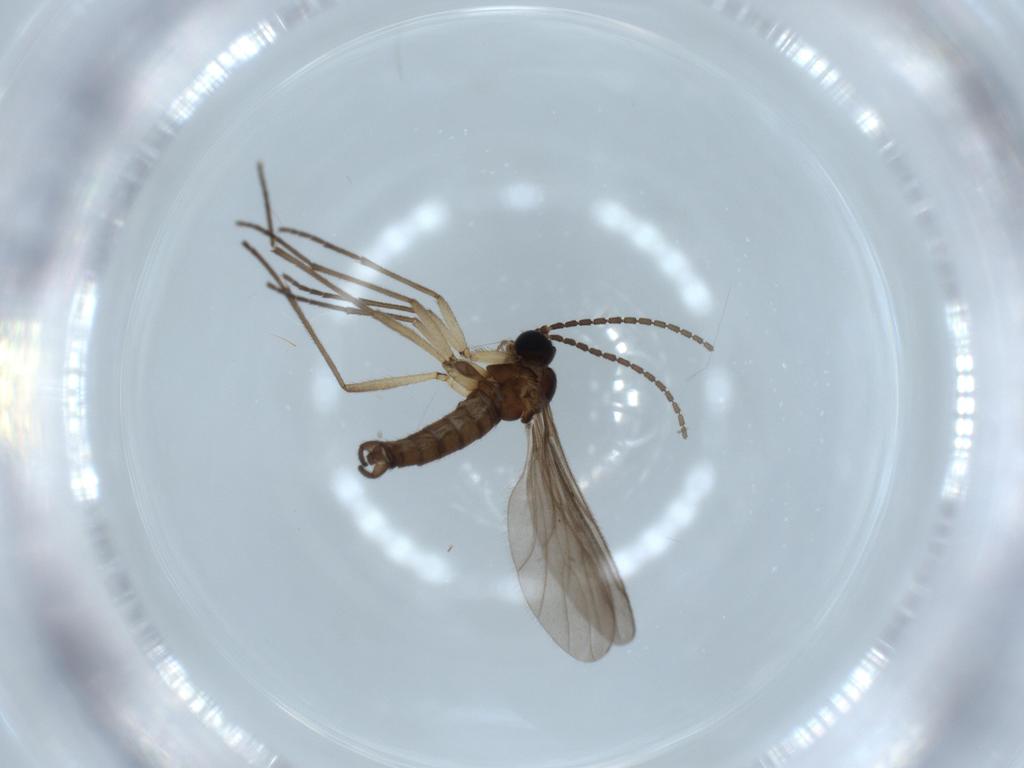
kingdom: Animalia
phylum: Arthropoda
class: Insecta
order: Diptera
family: Sciaridae
